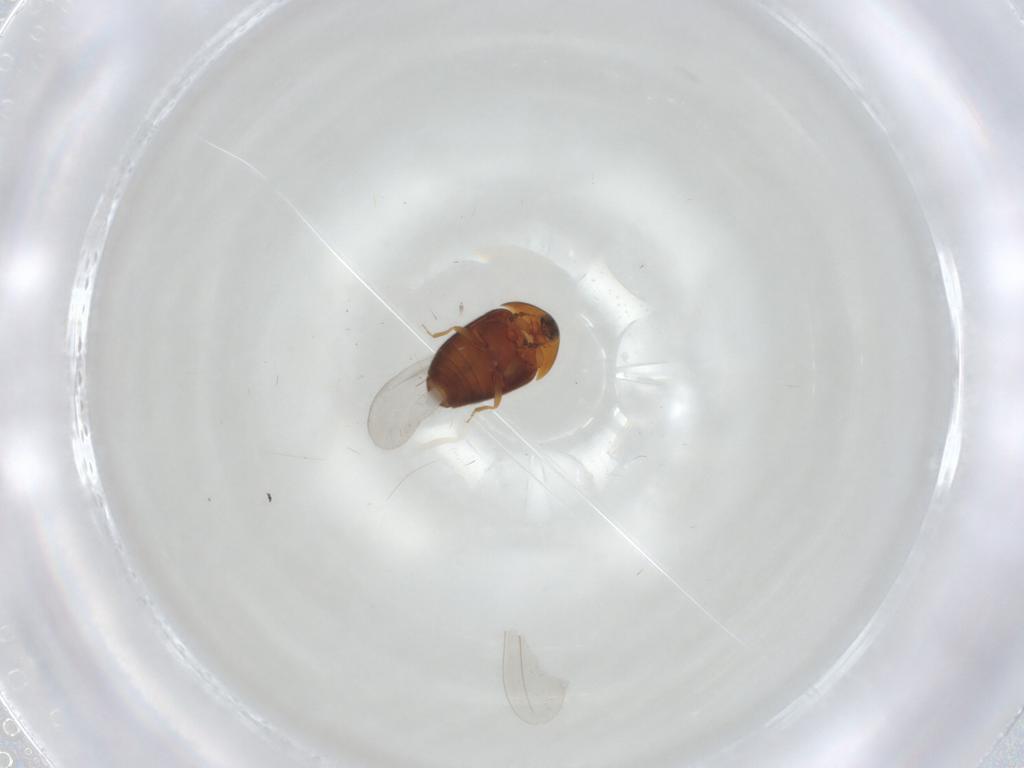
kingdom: Animalia
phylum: Arthropoda
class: Insecta
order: Coleoptera
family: Corylophidae
